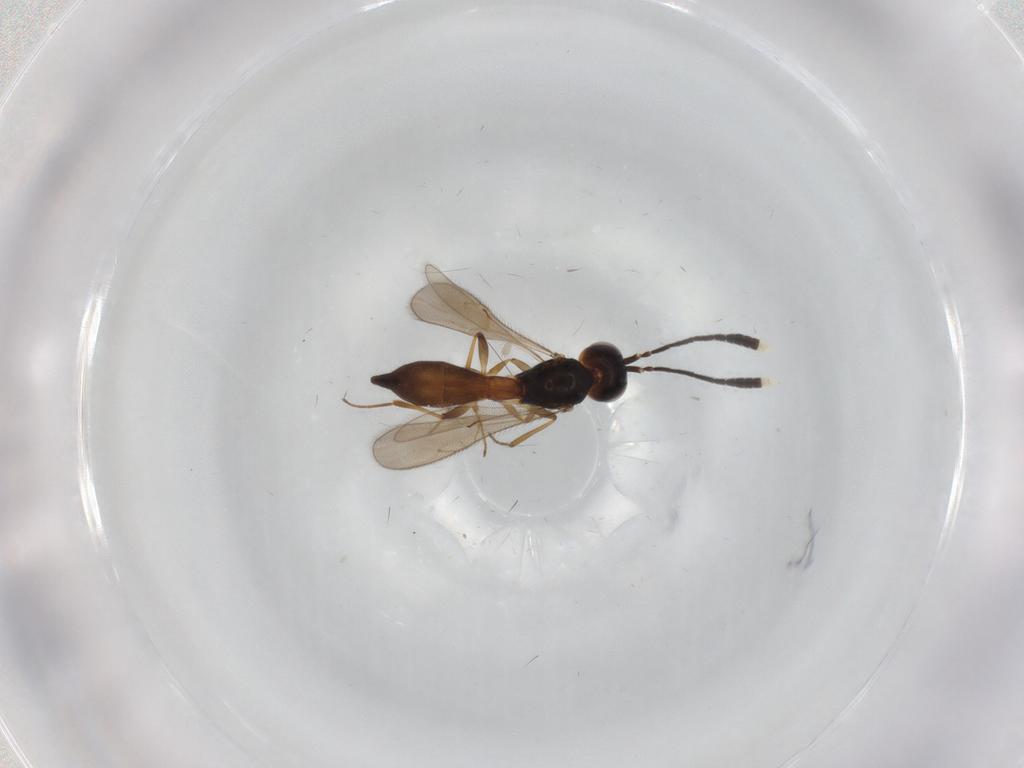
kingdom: Animalia
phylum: Arthropoda
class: Insecta
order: Hymenoptera
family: Scelionidae
